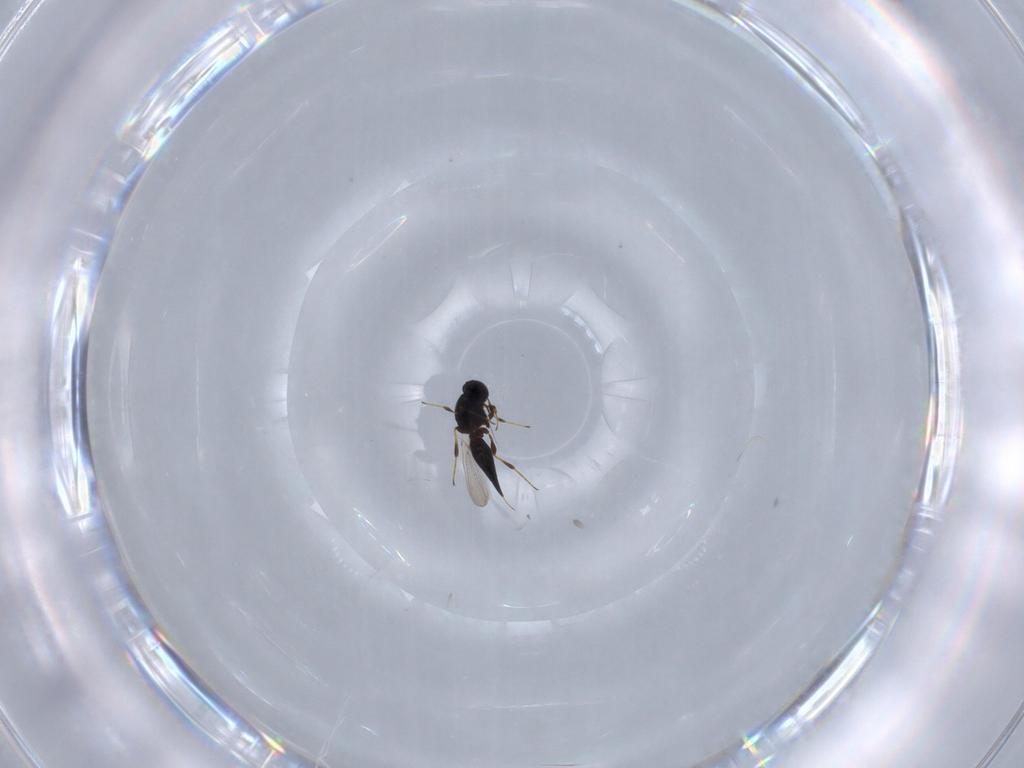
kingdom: Animalia
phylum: Arthropoda
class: Insecta
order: Hymenoptera
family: Platygastridae
